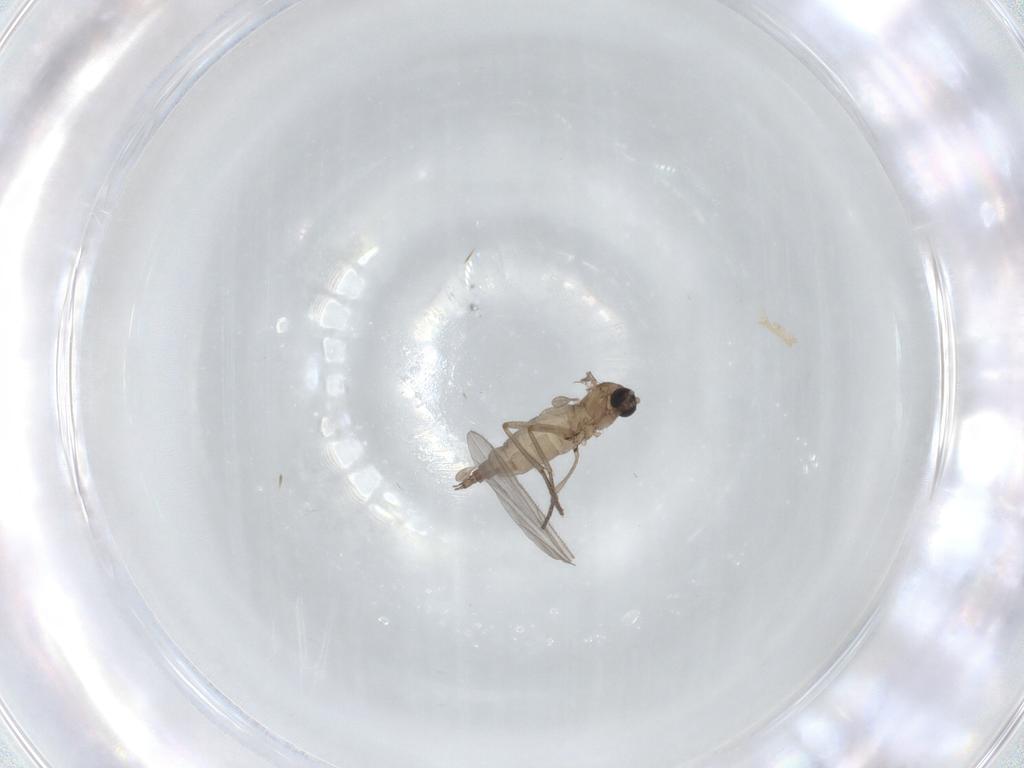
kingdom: Animalia
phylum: Arthropoda
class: Insecta
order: Diptera
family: Sciaridae
